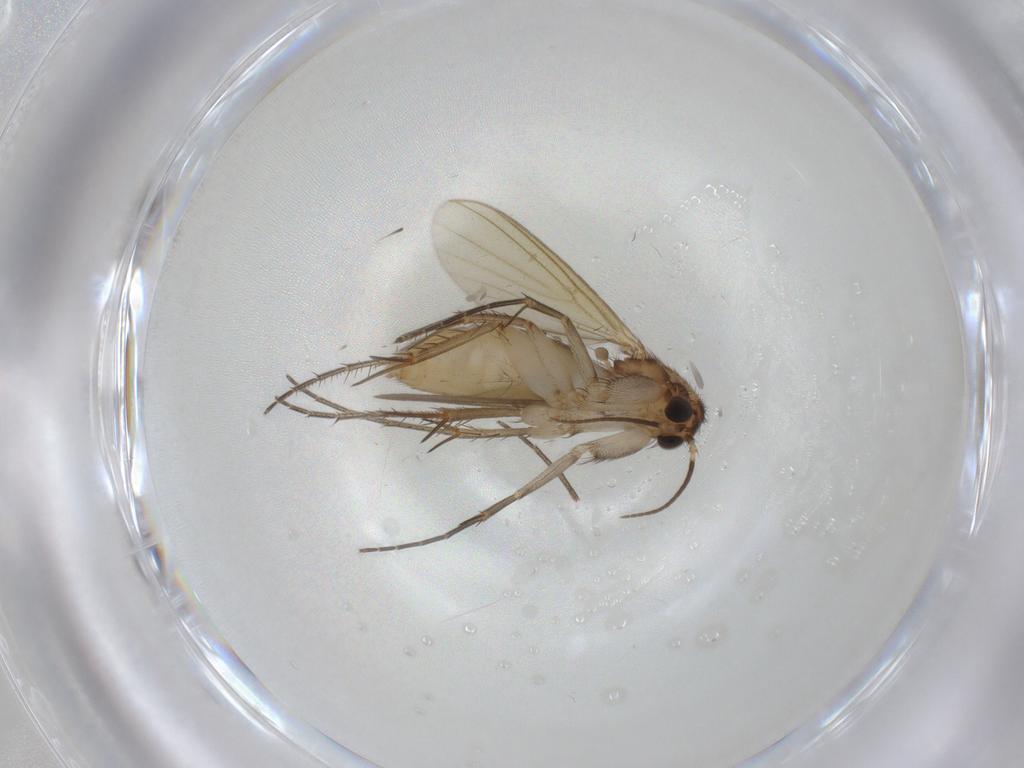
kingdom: Animalia
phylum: Arthropoda
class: Insecta
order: Diptera
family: Mycetophilidae
